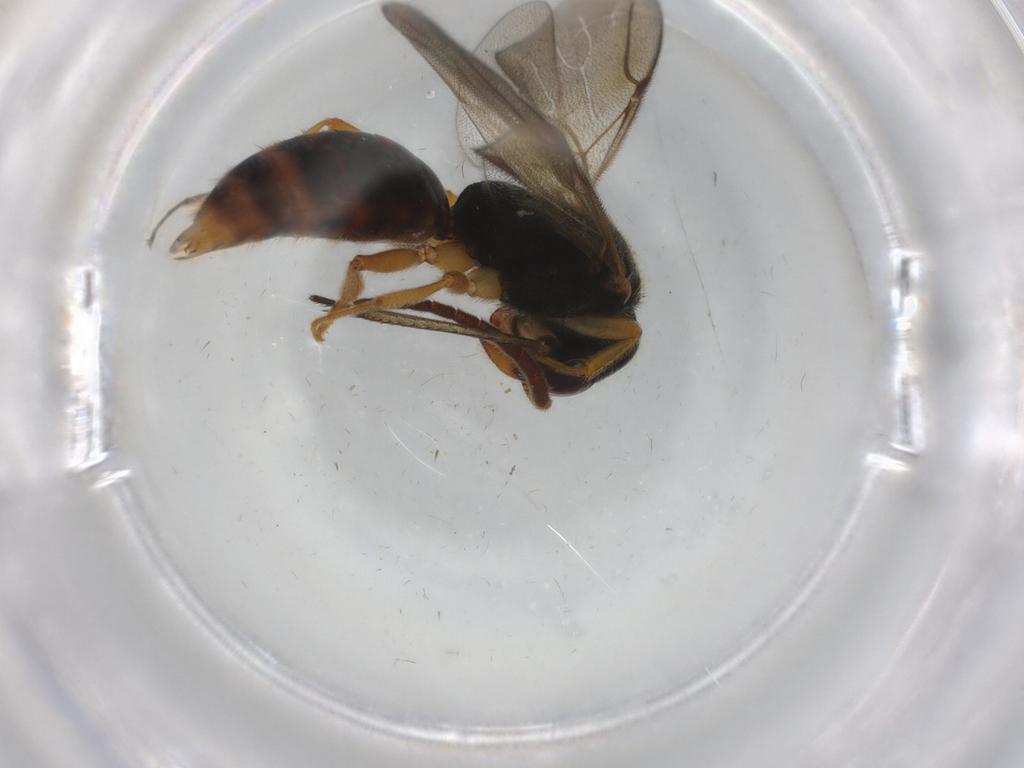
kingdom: Animalia
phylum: Arthropoda
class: Insecta
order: Hymenoptera
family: Bethylidae
